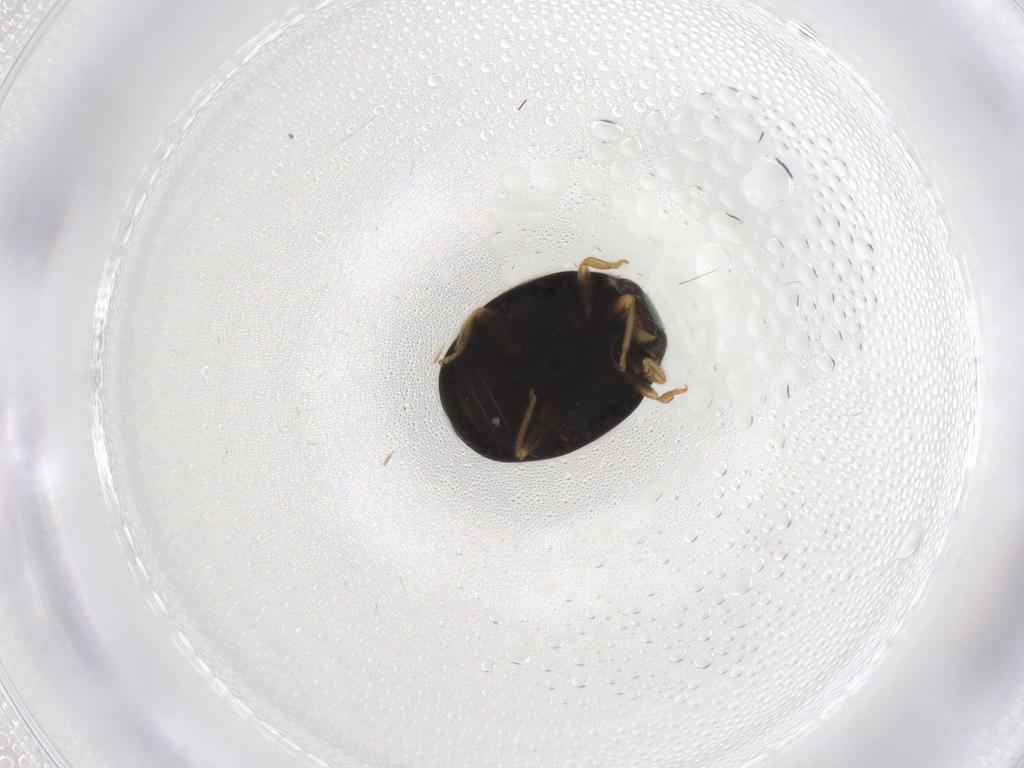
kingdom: Animalia
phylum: Arthropoda
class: Insecta
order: Coleoptera
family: Coccinellidae
